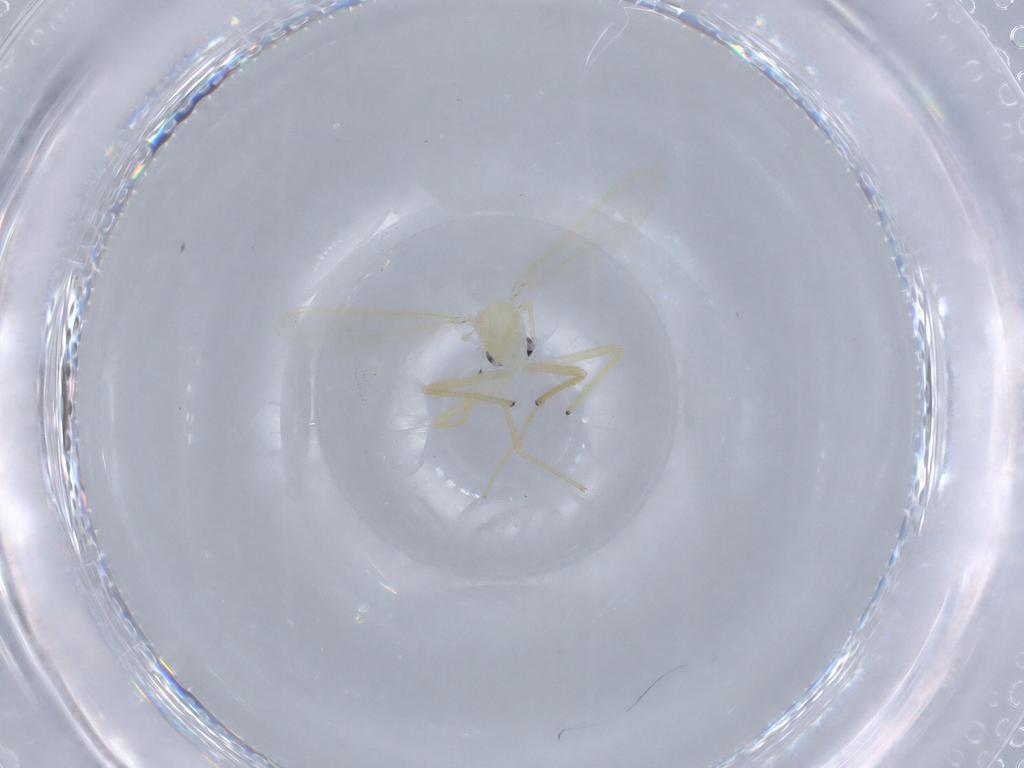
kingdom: Animalia
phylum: Arthropoda
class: Insecta
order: Diptera
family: Chironomidae
